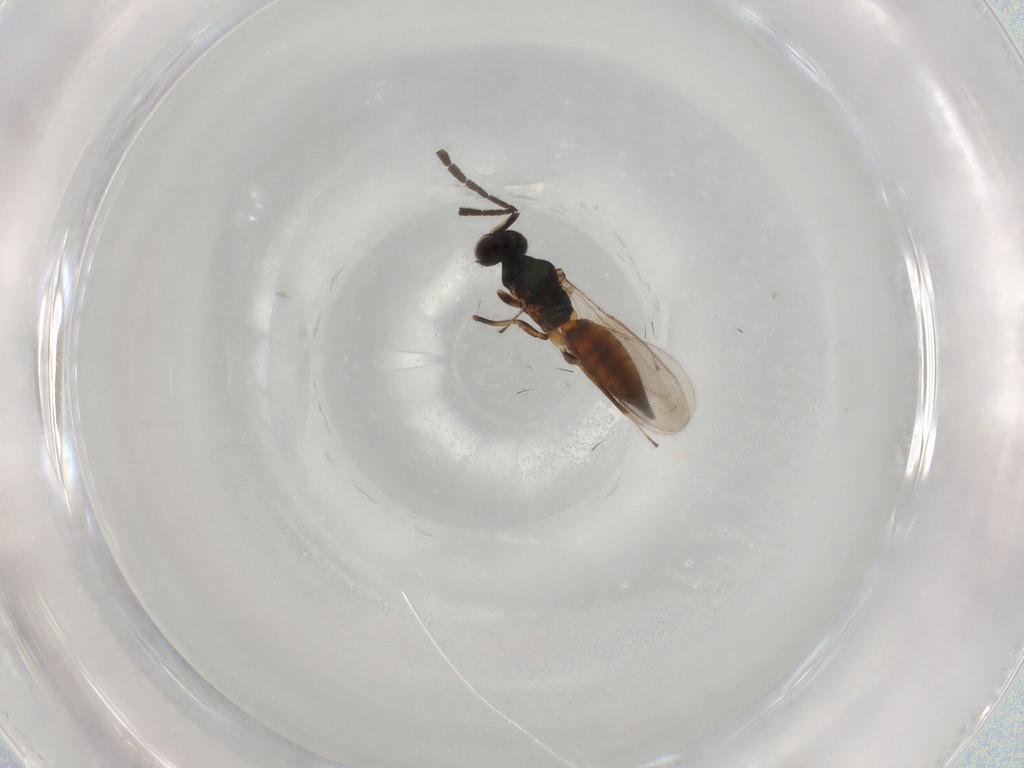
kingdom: Animalia
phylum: Arthropoda
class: Insecta
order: Hymenoptera
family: Eulophidae
